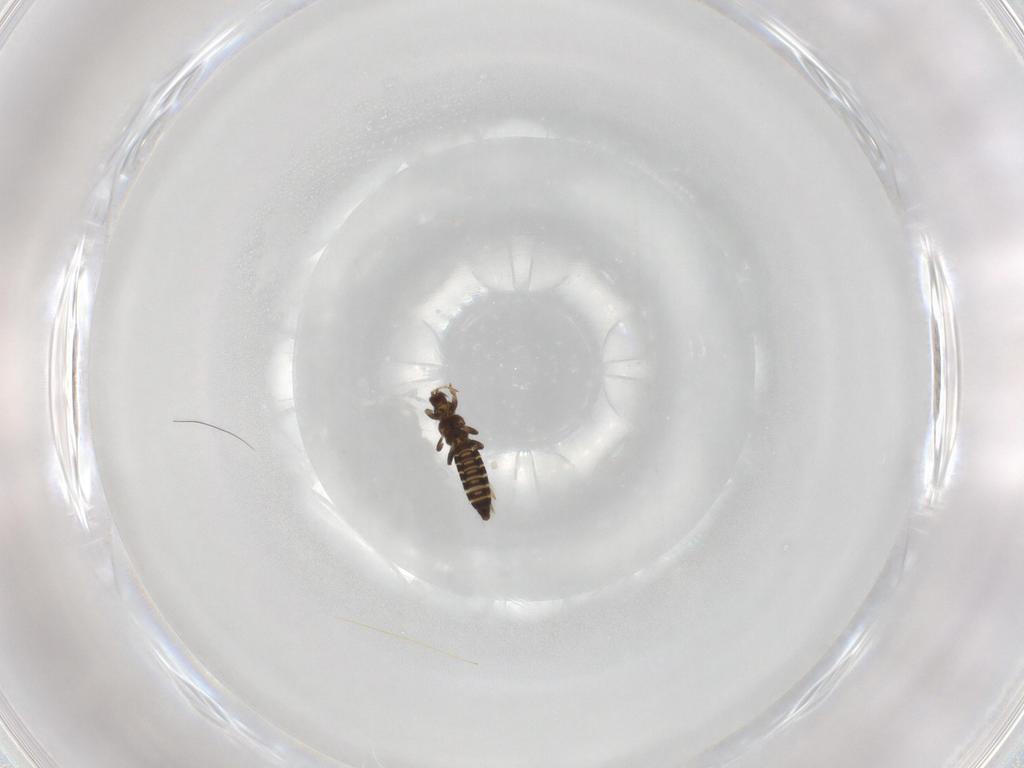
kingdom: Animalia
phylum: Arthropoda
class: Insecta
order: Thysanoptera
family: Thripidae
